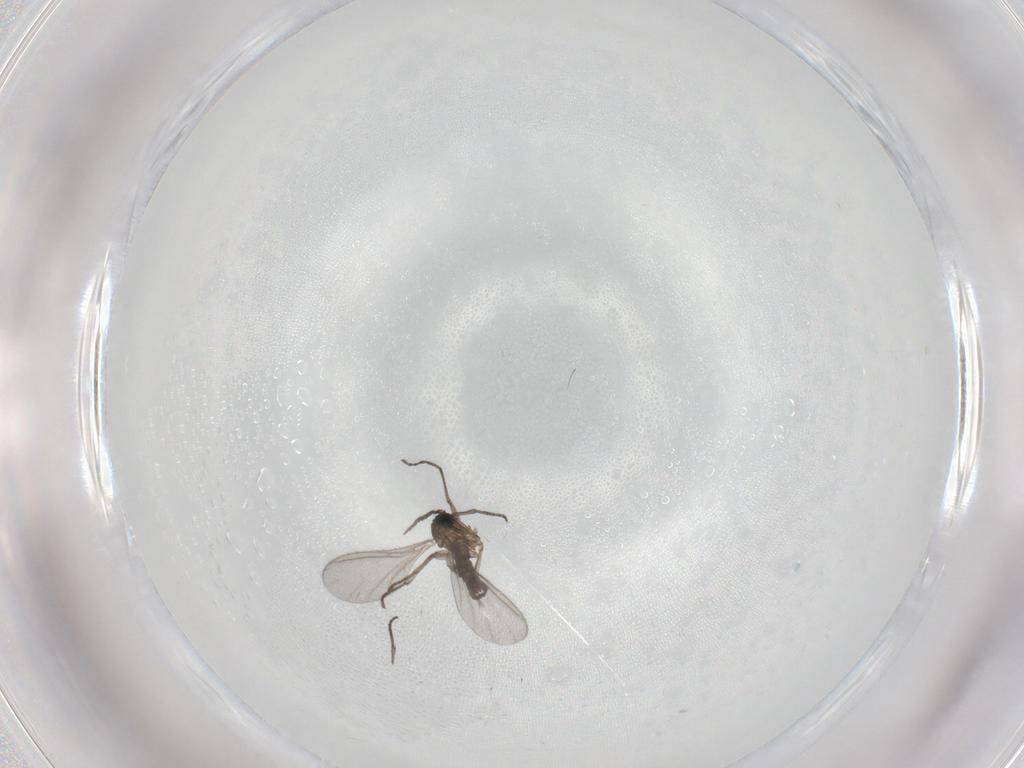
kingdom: Animalia
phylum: Arthropoda
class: Insecta
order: Diptera
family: Sciaridae
